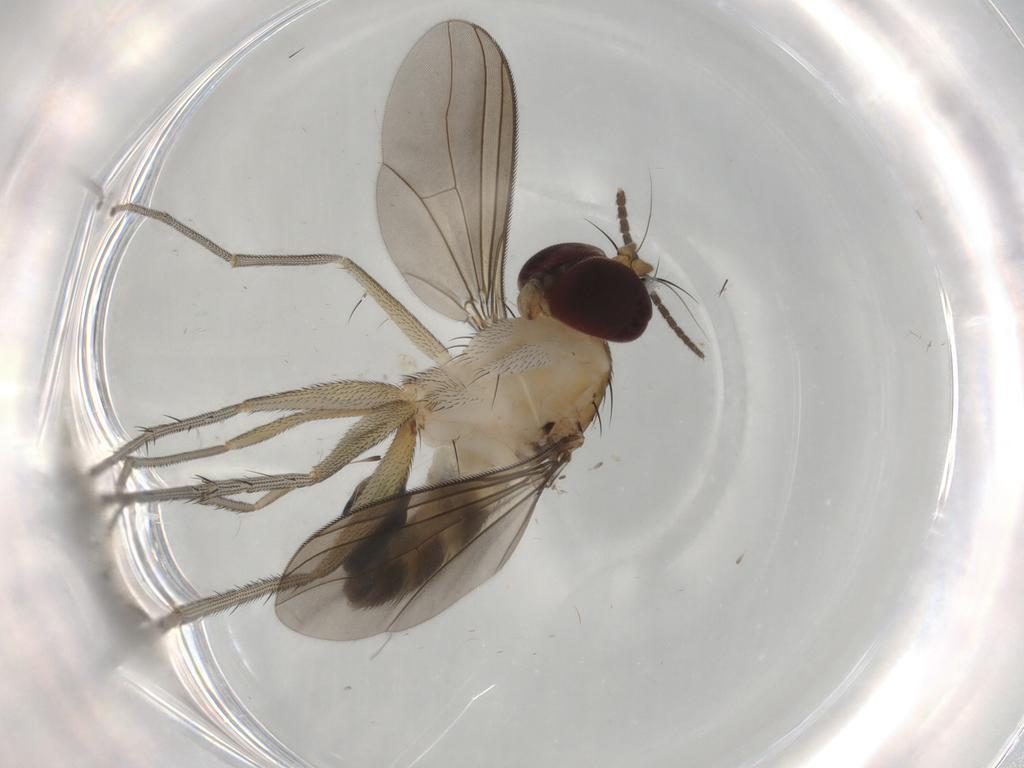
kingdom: Animalia
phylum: Arthropoda
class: Insecta
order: Diptera
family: Dolichopodidae
